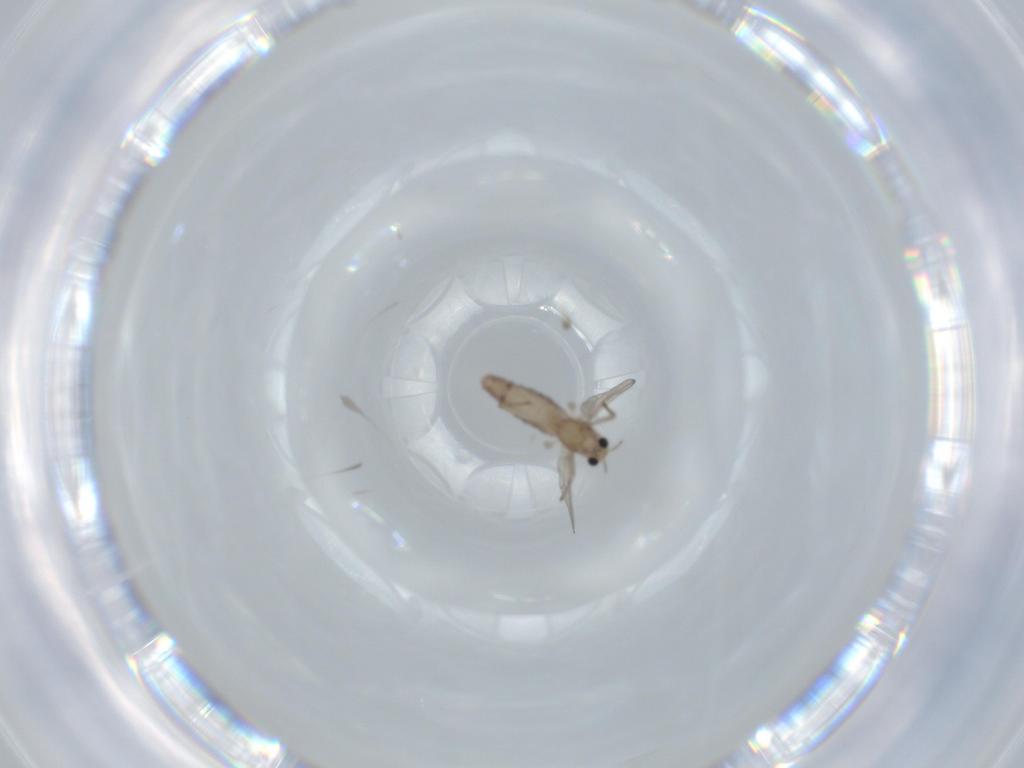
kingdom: Animalia
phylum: Arthropoda
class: Insecta
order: Diptera
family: Chironomidae
